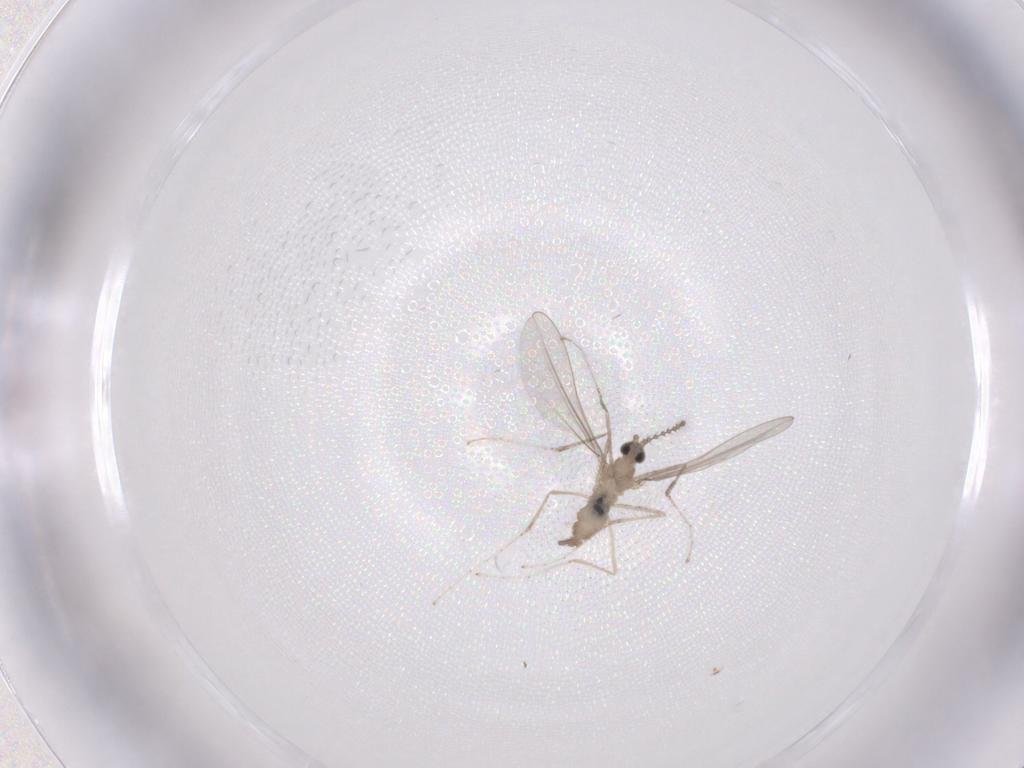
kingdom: Animalia
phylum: Arthropoda
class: Insecta
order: Diptera
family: Cecidomyiidae
